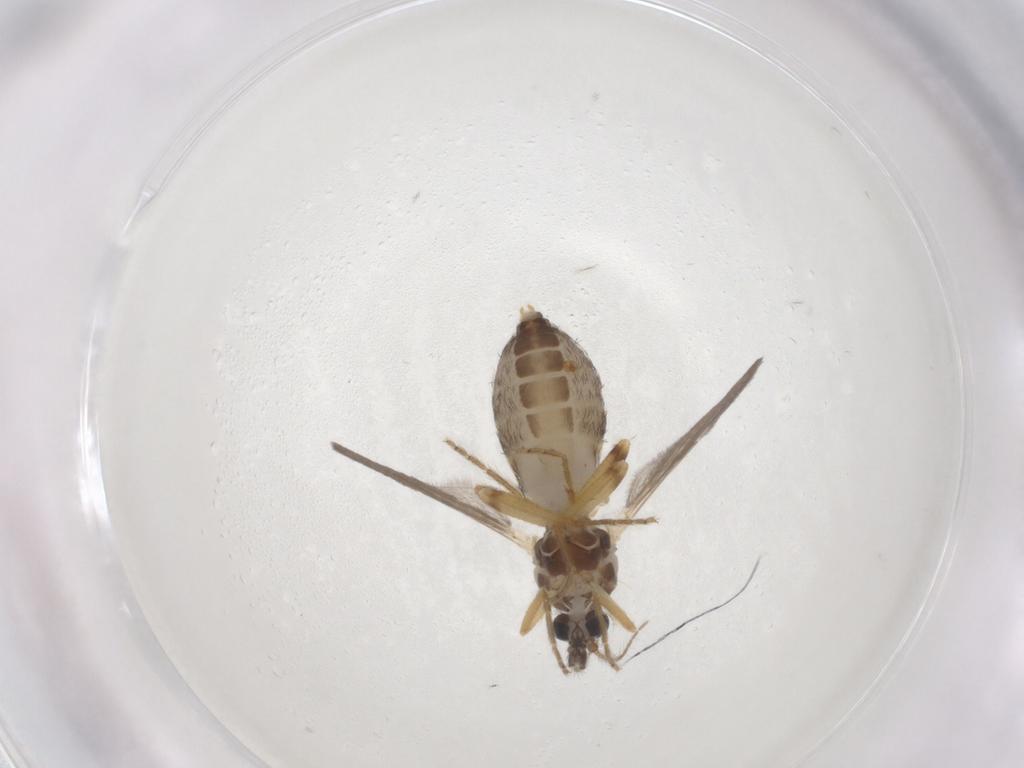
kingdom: Animalia
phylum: Arthropoda
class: Insecta
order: Diptera
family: Ceratopogonidae
